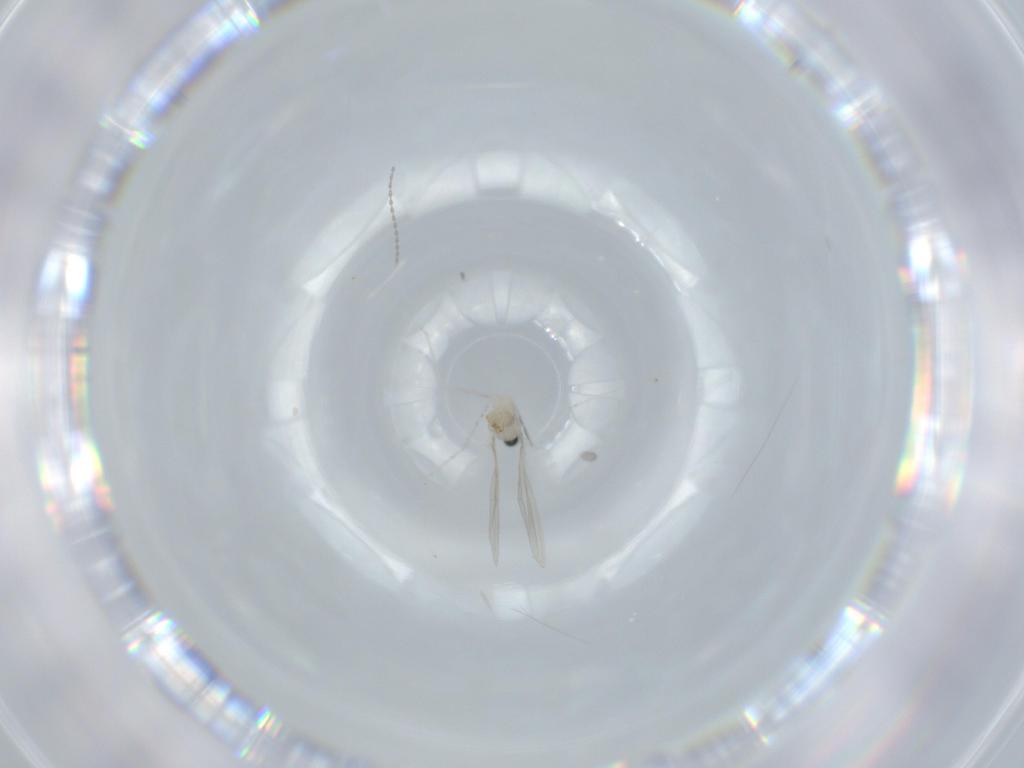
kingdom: Animalia
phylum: Arthropoda
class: Insecta
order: Diptera
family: Cecidomyiidae
